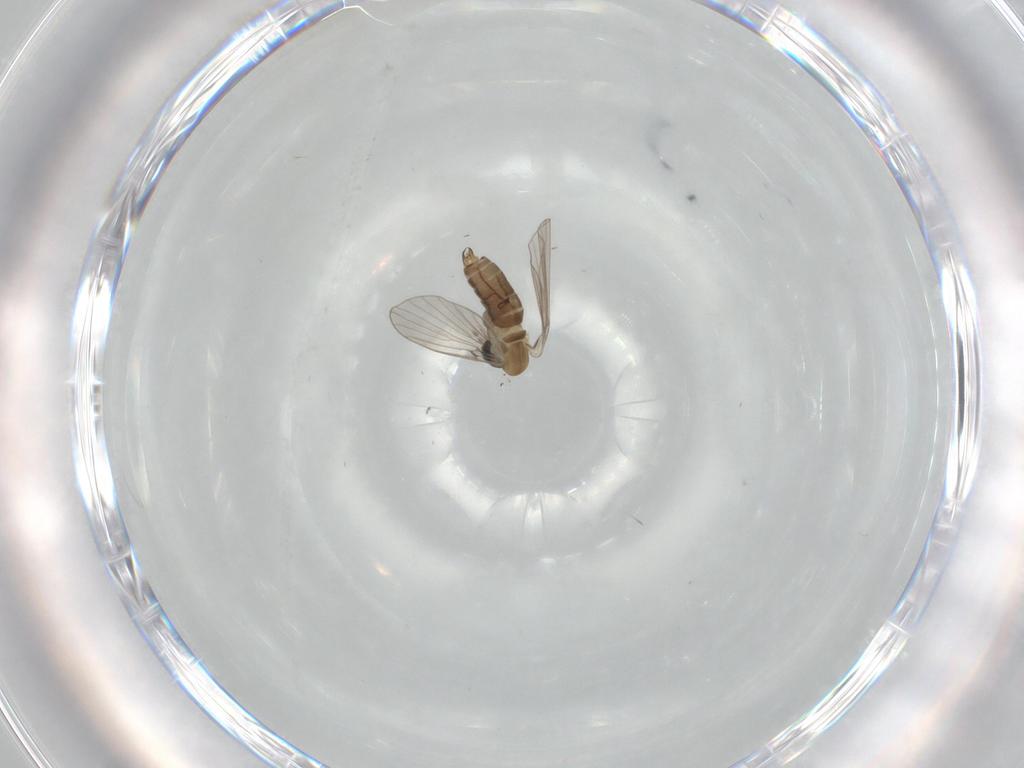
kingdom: Animalia
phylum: Arthropoda
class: Insecta
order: Diptera
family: Psychodidae
